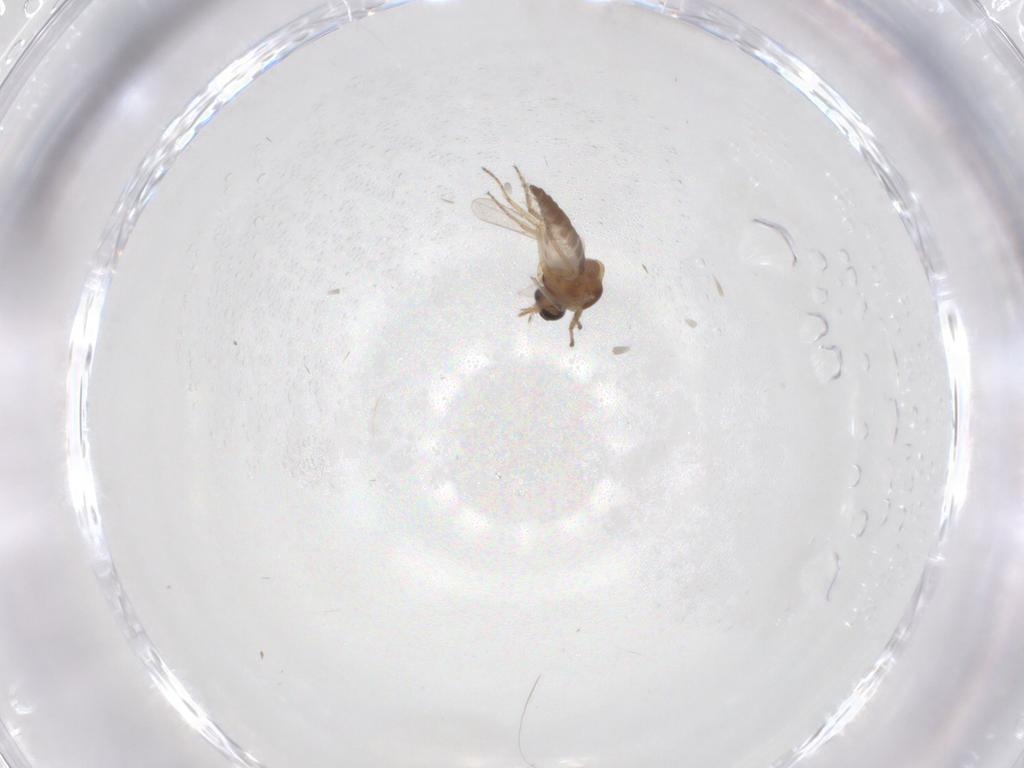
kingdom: Animalia
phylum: Arthropoda
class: Insecta
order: Diptera
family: Ceratopogonidae
